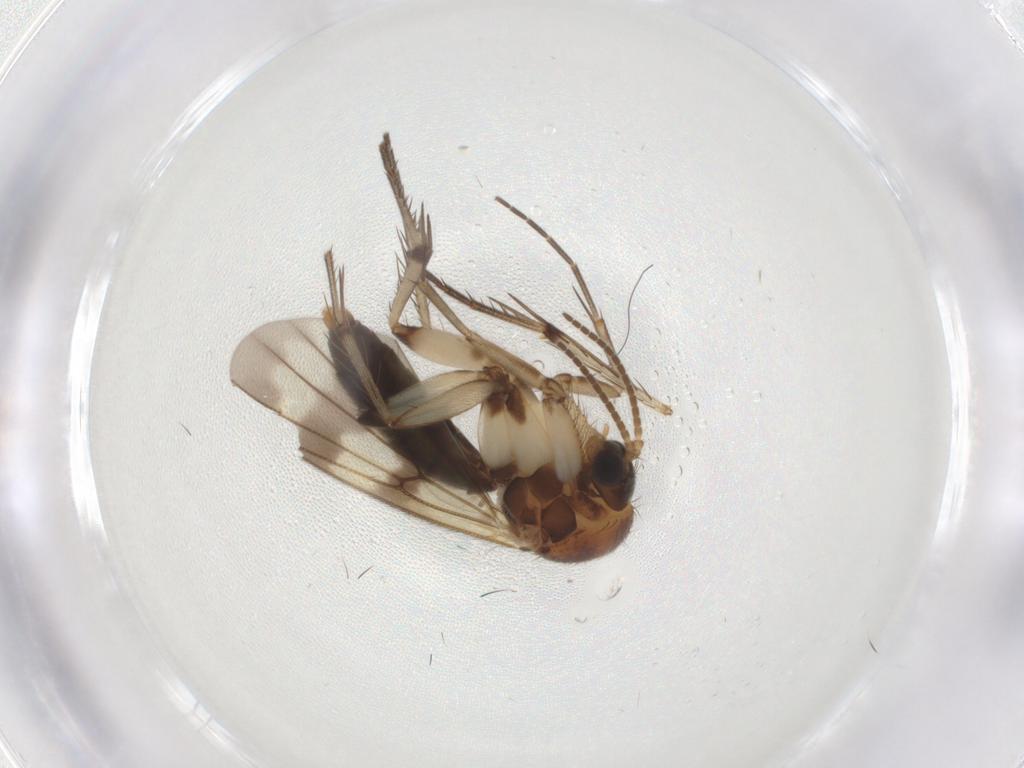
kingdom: Animalia
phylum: Arthropoda
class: Insecta
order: Diptera
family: Mycetophilidae
